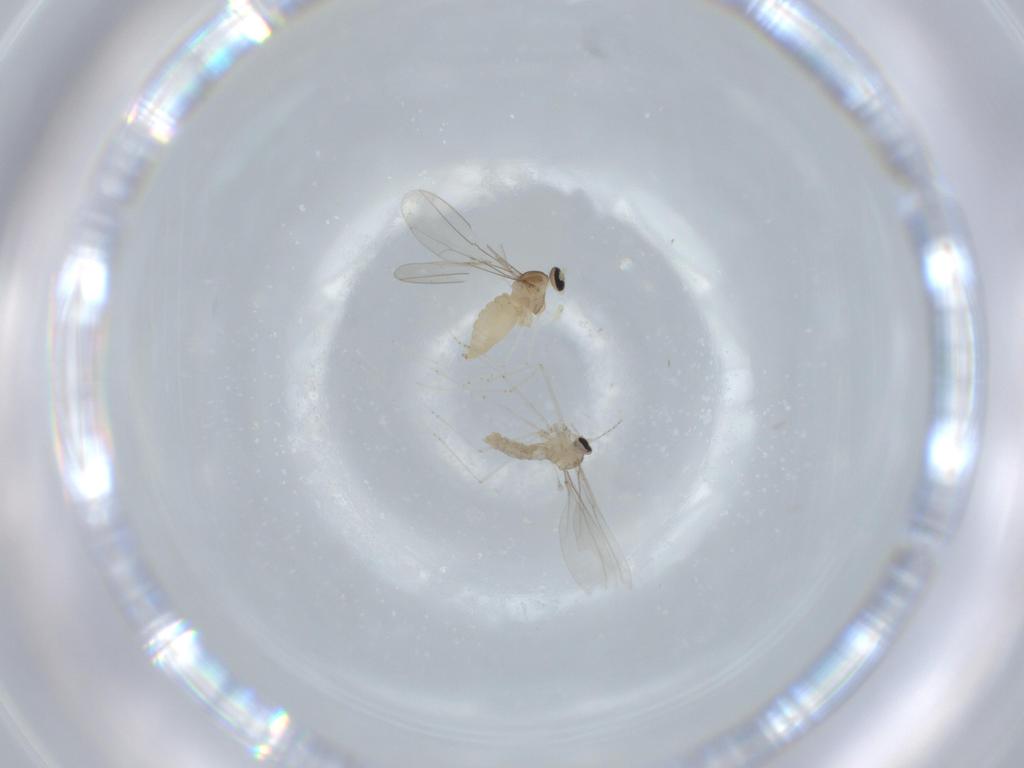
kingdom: Animalia
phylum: Arthropoda
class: Insecta
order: Diptera
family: Cecidomyiidae
